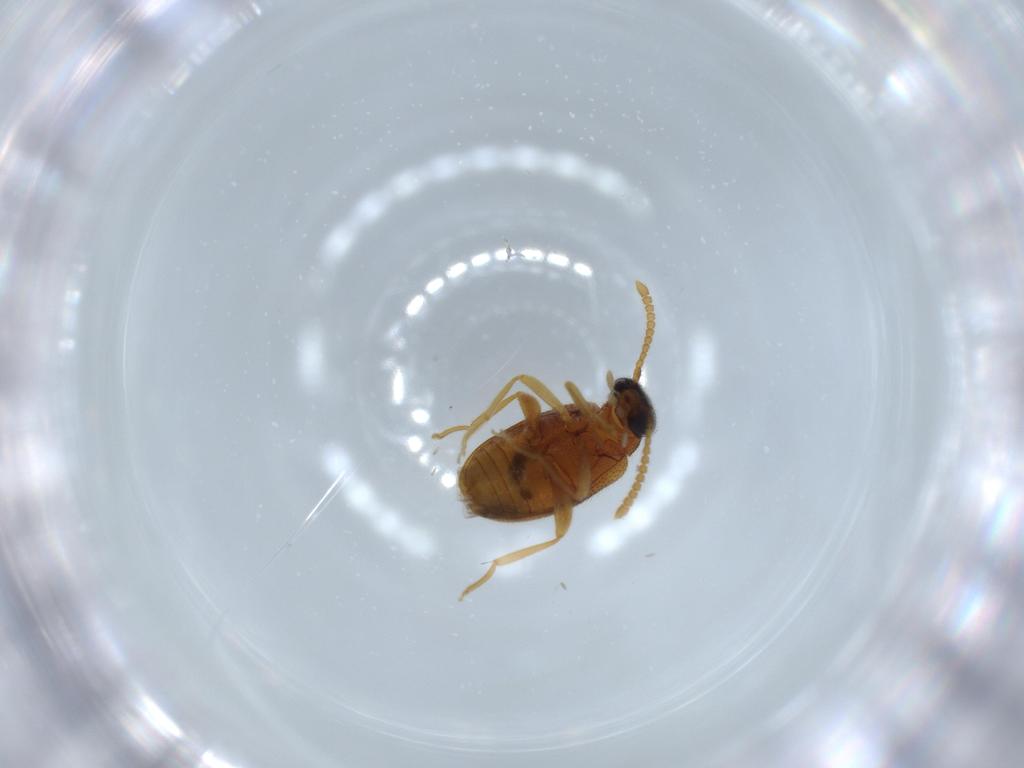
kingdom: Animalia
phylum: Arthropoda
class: Insecta
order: Coleoptera
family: Aderidae
